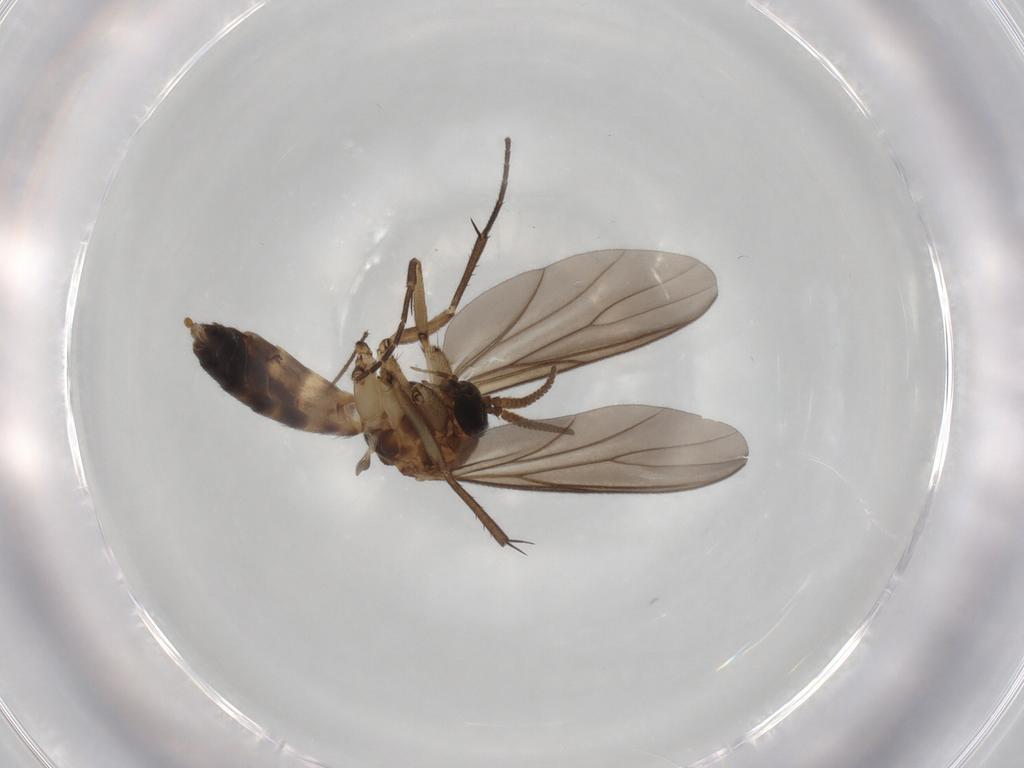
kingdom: Animalia
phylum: Arthropoda
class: Insecta
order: Diptera
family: Mycetophilidae
